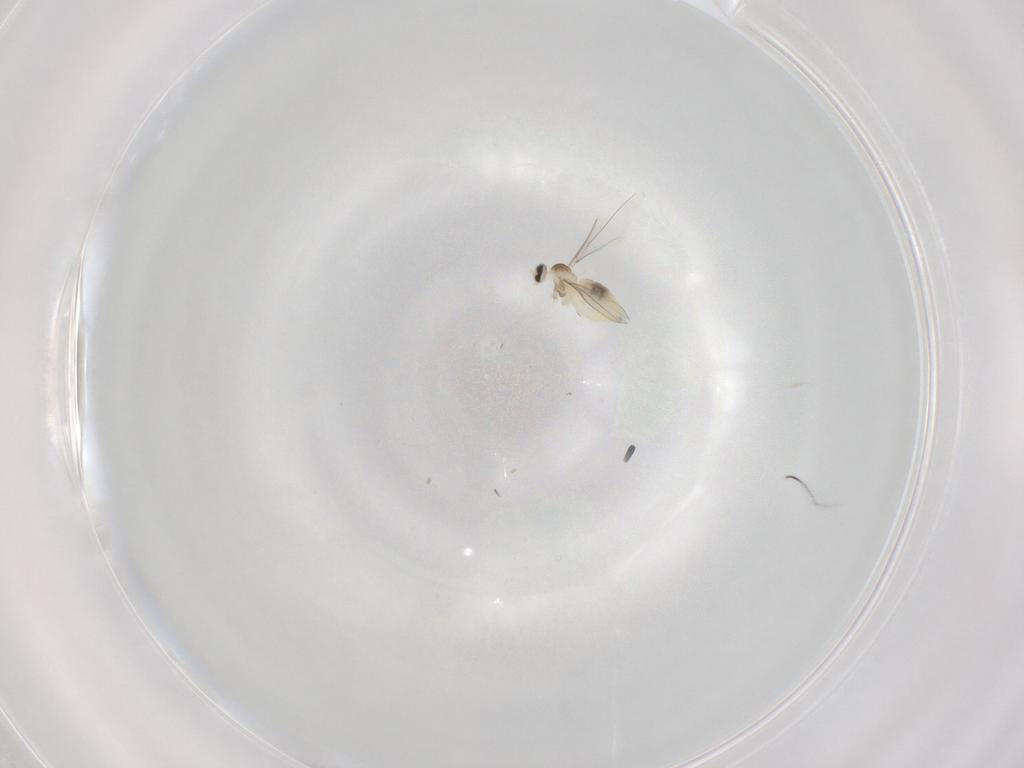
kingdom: Animalia
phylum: Arthropoda
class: Insecta
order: Diptera
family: Cecidomyiidae
